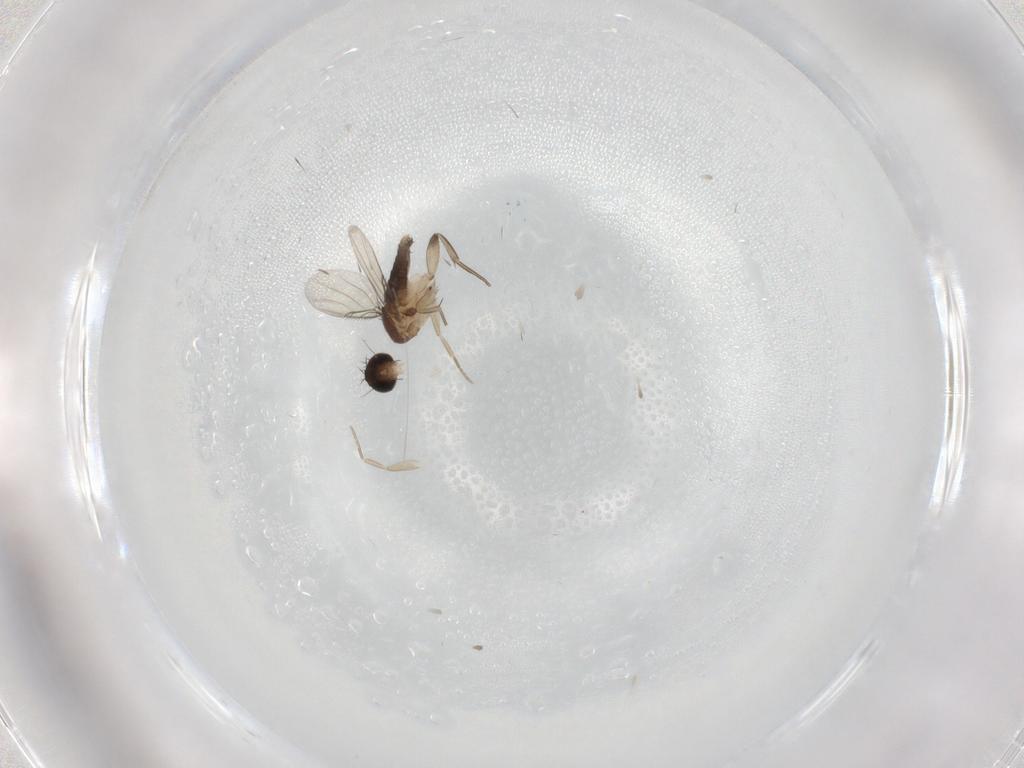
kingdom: Animalia
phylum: Arthropoda
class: Insecta
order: Diptera
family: Phoridae
